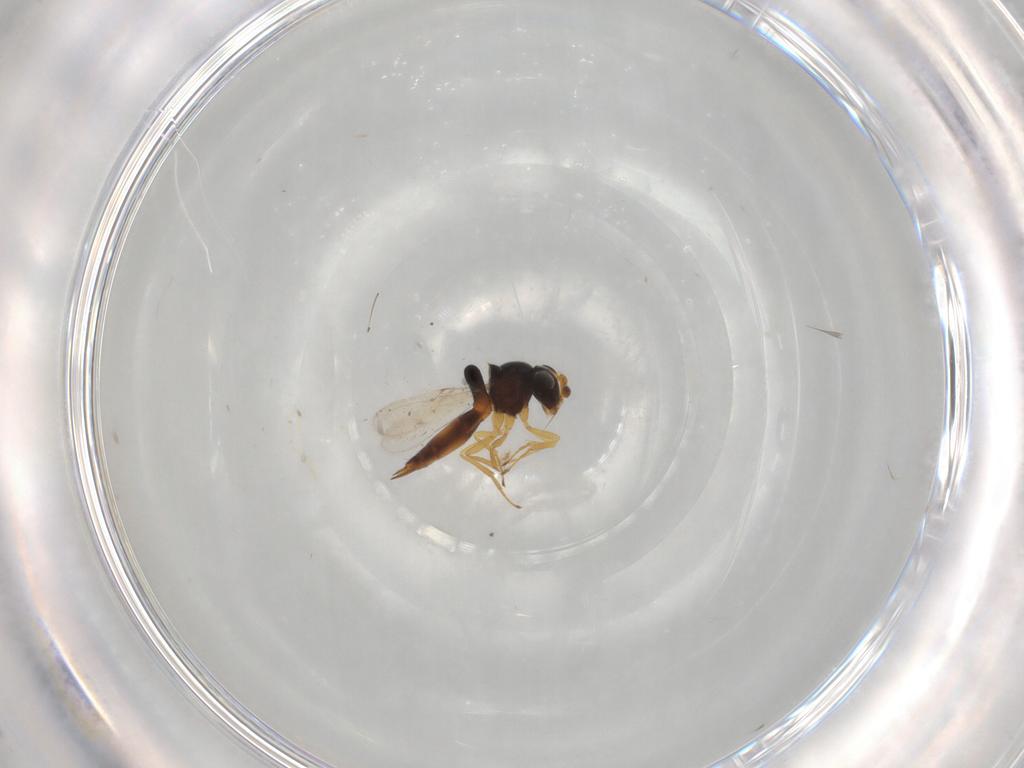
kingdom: Animalia
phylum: Arthropoda
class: Insecta
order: Hymenoptera
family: Scelionidae
